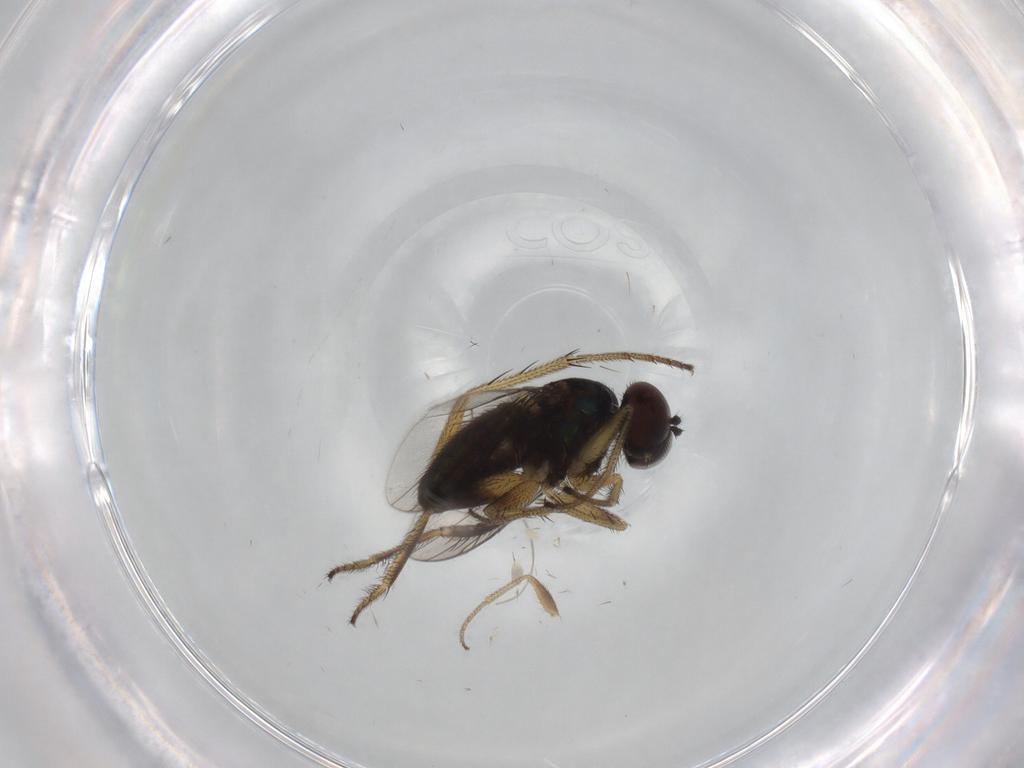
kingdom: Animalia
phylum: Arthropoda
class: Insecta
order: Diptera
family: Dolichopodidae
